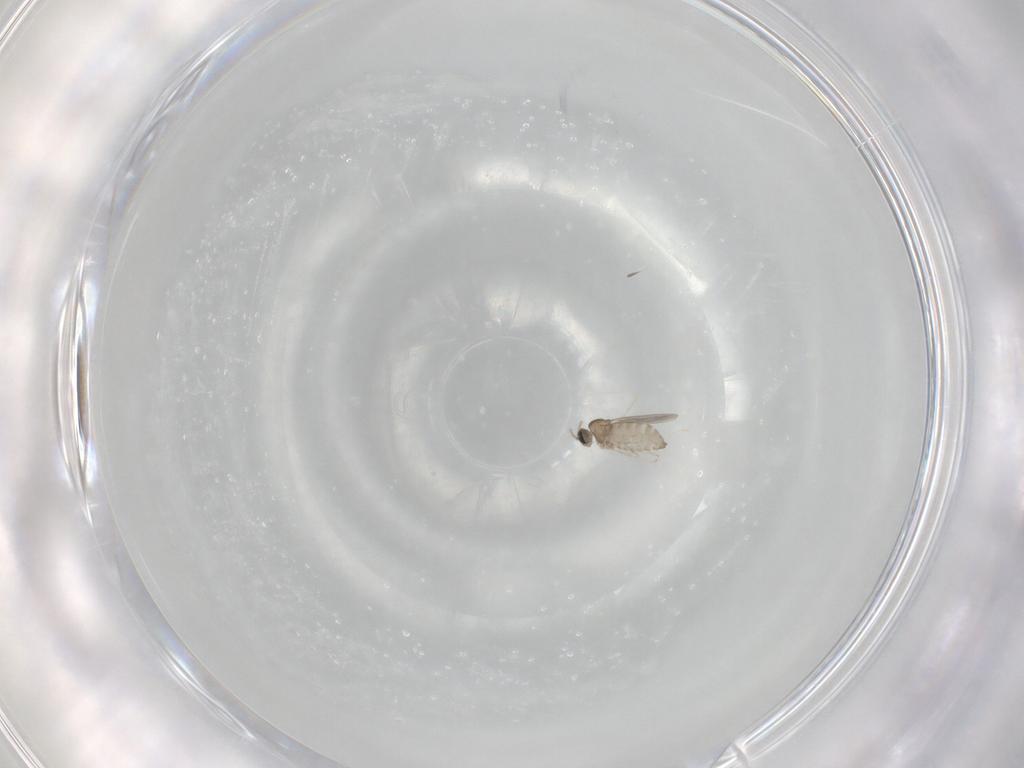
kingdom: Animalia
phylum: Arthropoda
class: Insecta
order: Diptera
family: Cecidomyiidae
